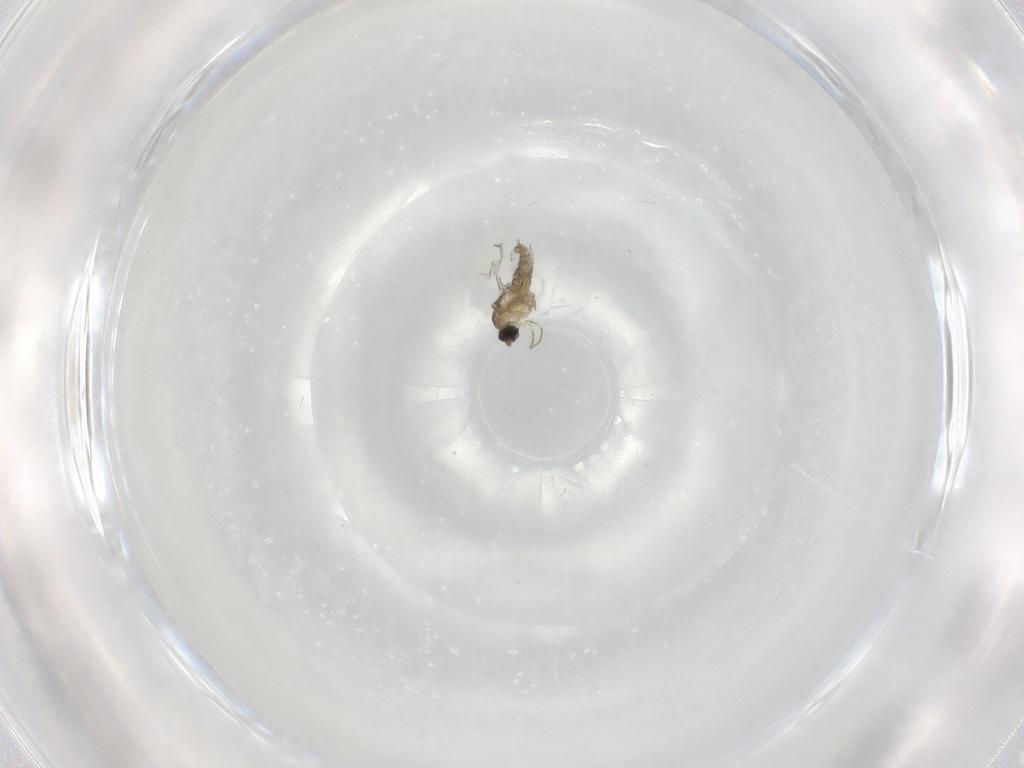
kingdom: Animalia
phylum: Arthropoda
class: Insecta
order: Diptera
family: Cecidomyiidae
